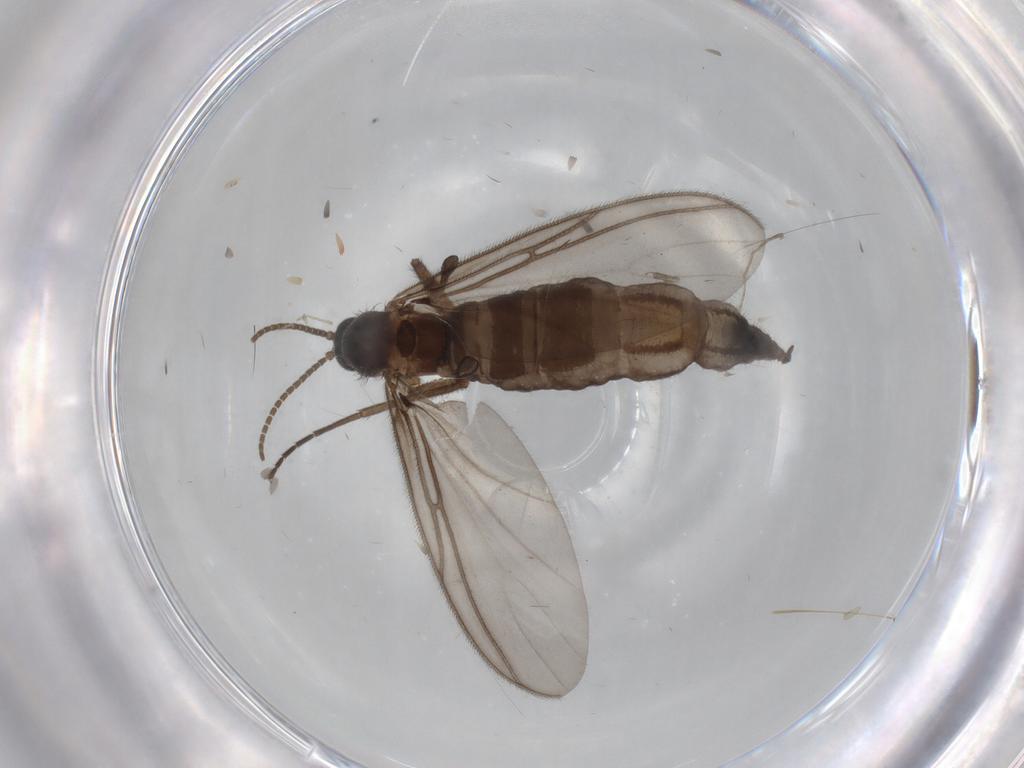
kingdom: Animalia
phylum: Arthropoda
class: Insecta
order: Diptera
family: Sciaridae
